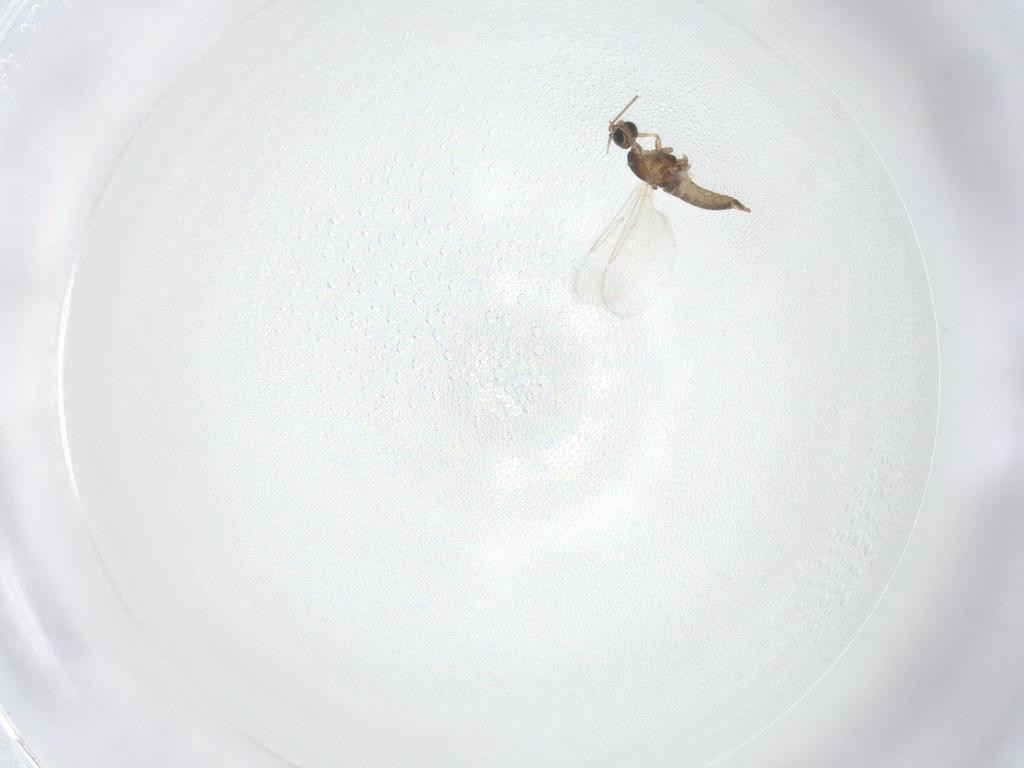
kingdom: Animalia
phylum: Arthropoda
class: Insecta
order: Diptera
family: Cecidomyiidae
